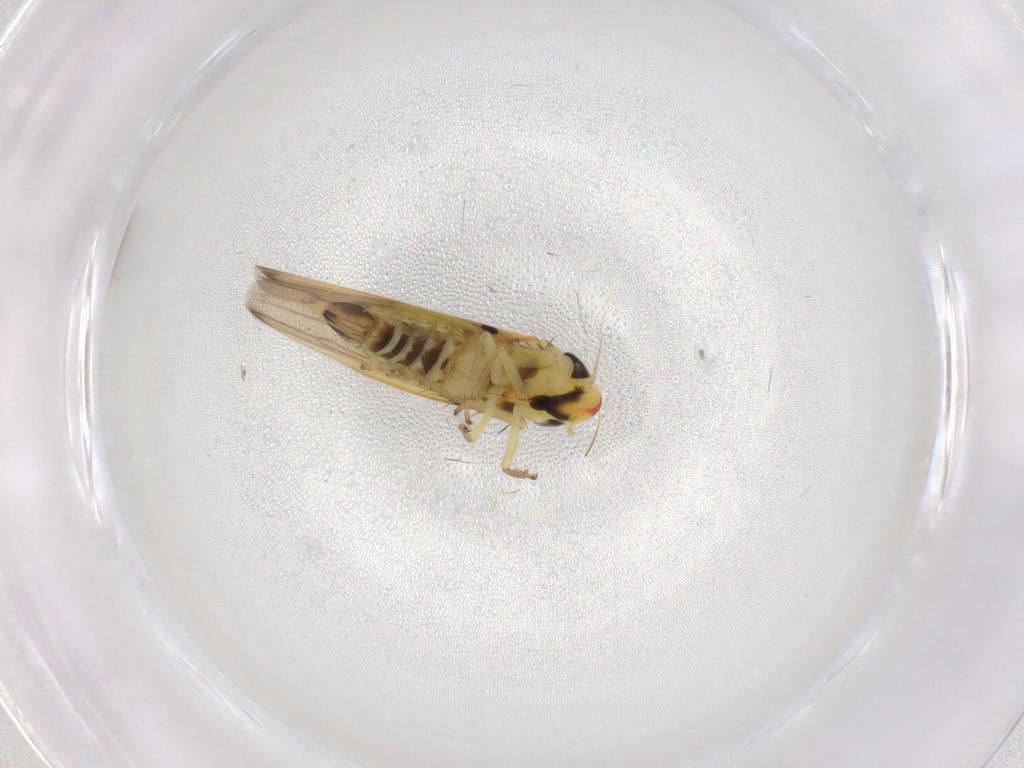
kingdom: Animalia
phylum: Arthropoda
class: Insecta
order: Hemiptera
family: Cicadellidae
